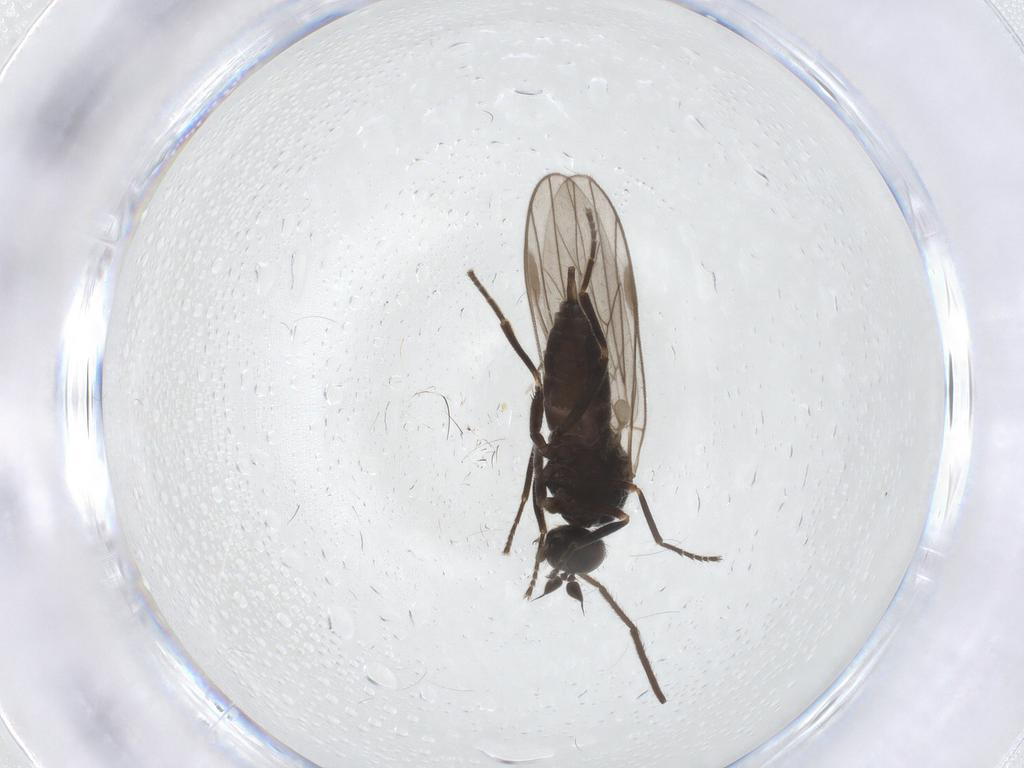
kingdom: Animalia
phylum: Arthropoda
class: Insecta
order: Diptera
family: Hybotidae
